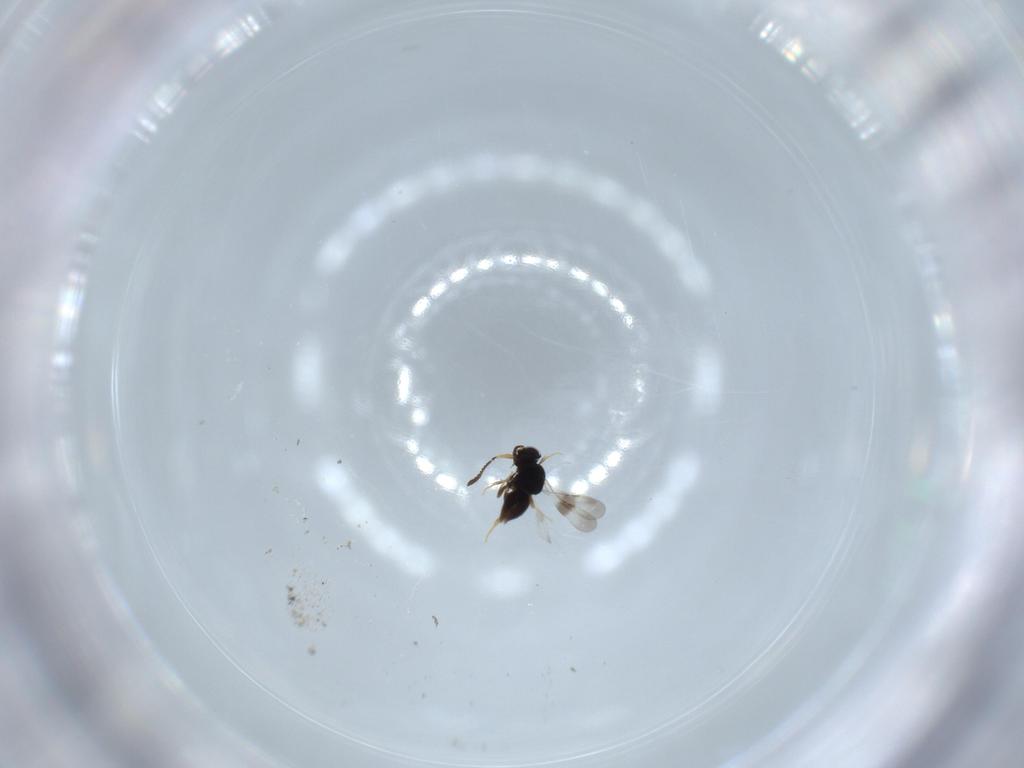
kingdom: Animalia
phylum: Arthropoda
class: Insecta
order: Hymenoptera
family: Ceraphronidae
